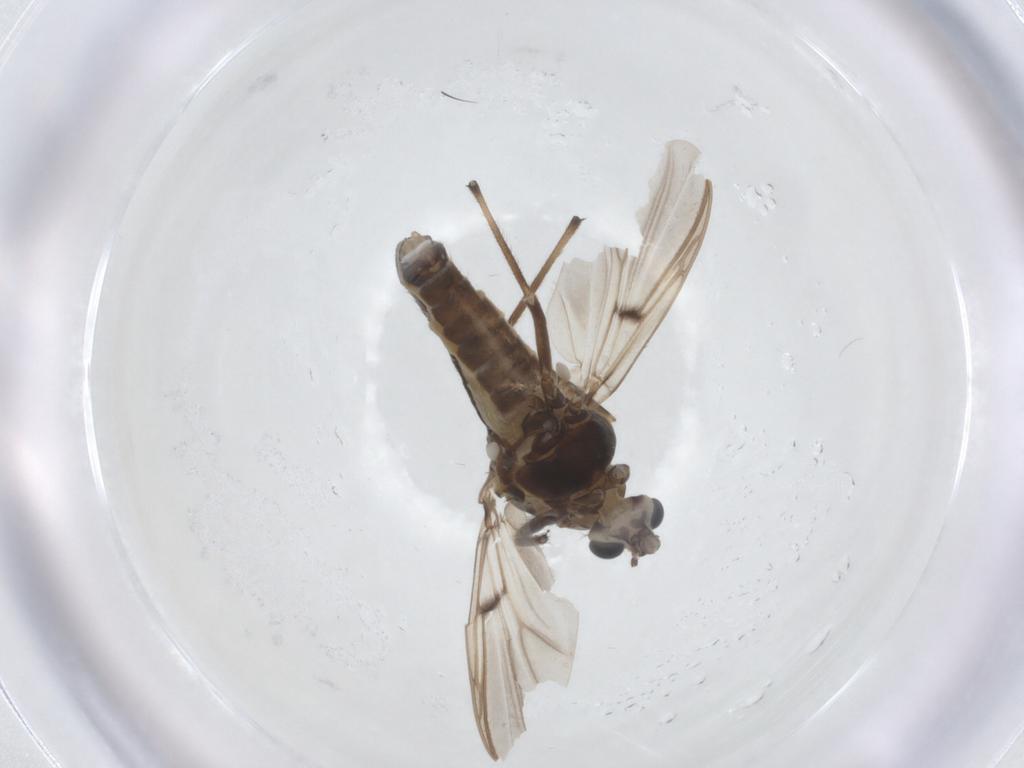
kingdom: Animalia
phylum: Arthropoda
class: Insecta
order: Diptera
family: Chironomidae
